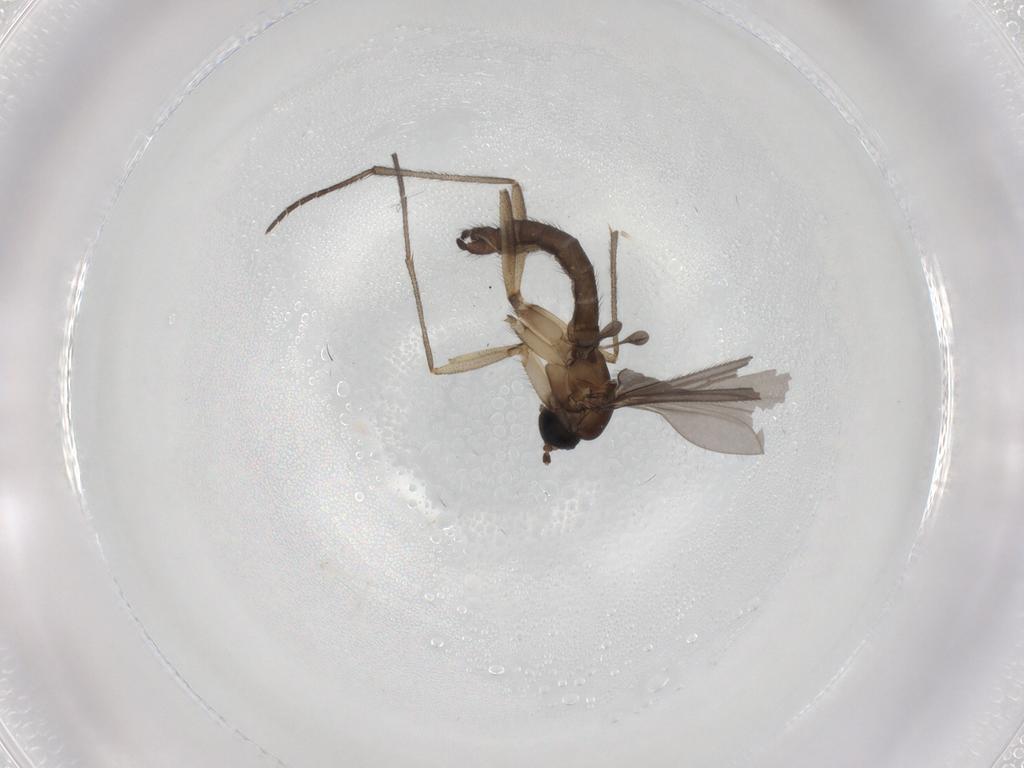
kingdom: Animalia
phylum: Arthropoda
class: Insecta
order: Diptera
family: Sciaridae
